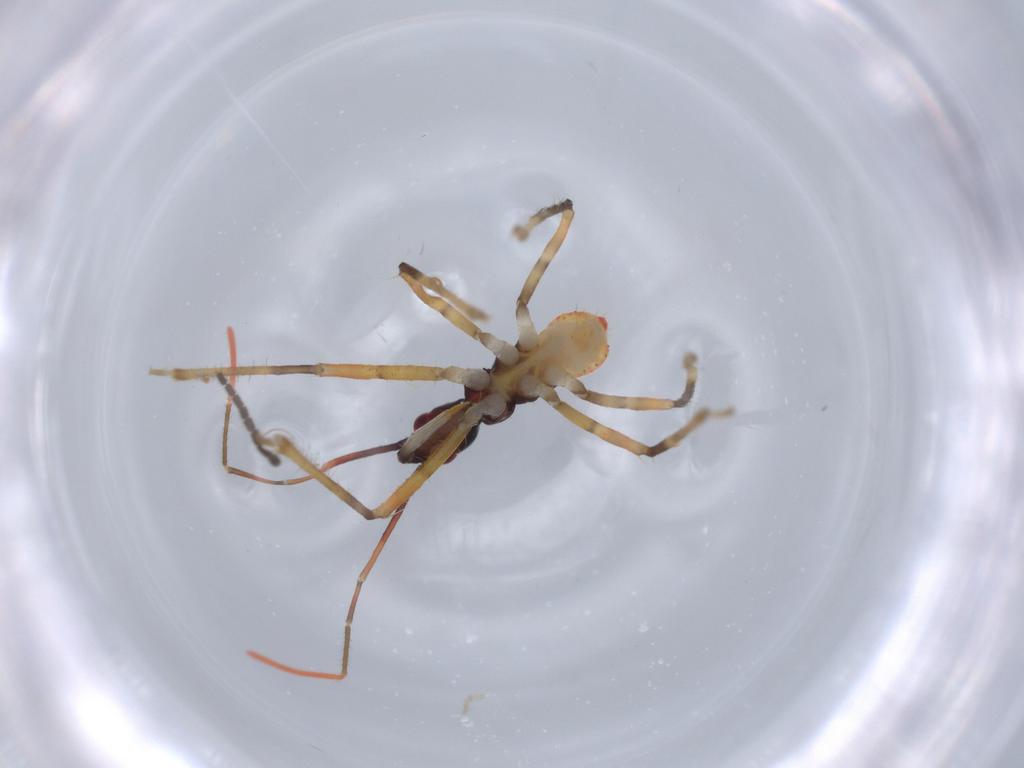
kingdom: Animalia
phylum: Arthropoda
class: Insecta
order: Hemiptera
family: Reduviidae
